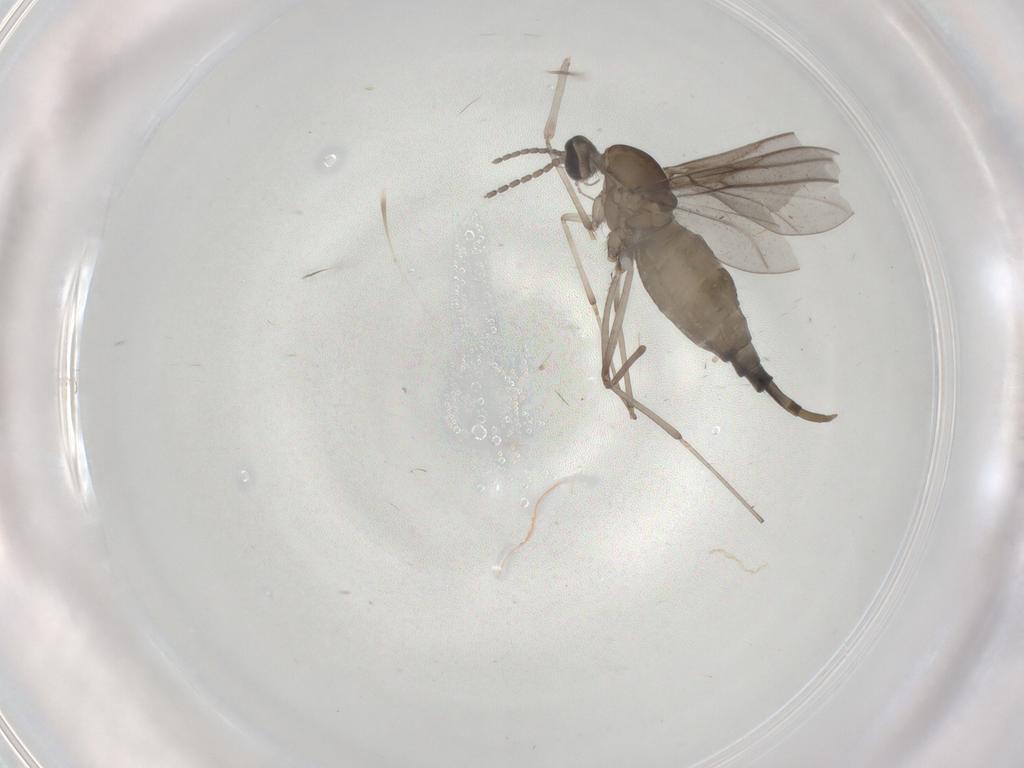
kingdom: Animalia
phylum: Arthropoda
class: Insecta
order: Diptera
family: Cecidomyiidae
